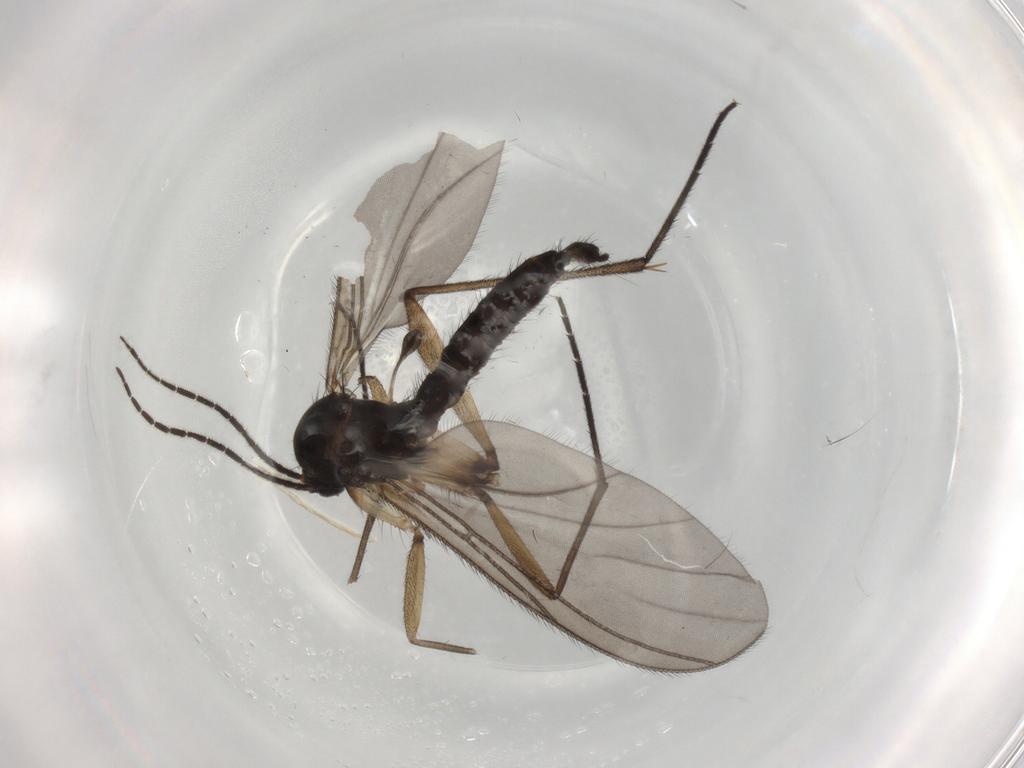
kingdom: Animalia
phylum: Arthropoda
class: Insecta
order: Diptera
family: Sciaridae
